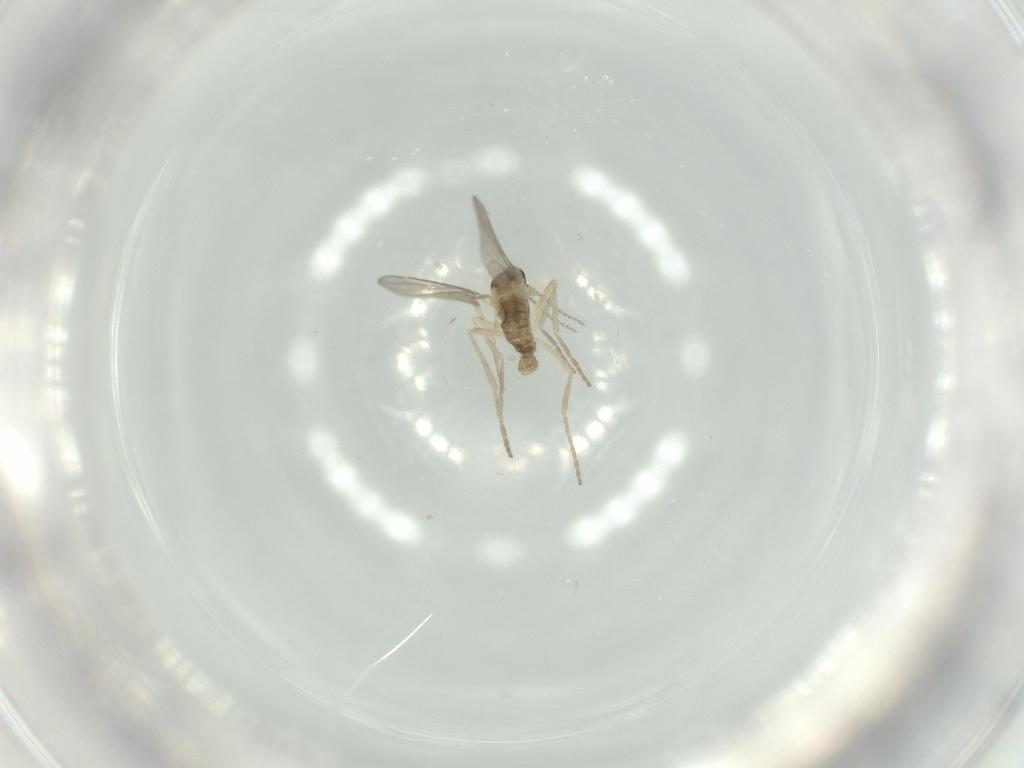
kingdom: Animalia
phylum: Arthropoda
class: Insecta
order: Diptera
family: Cecidomyiidae
